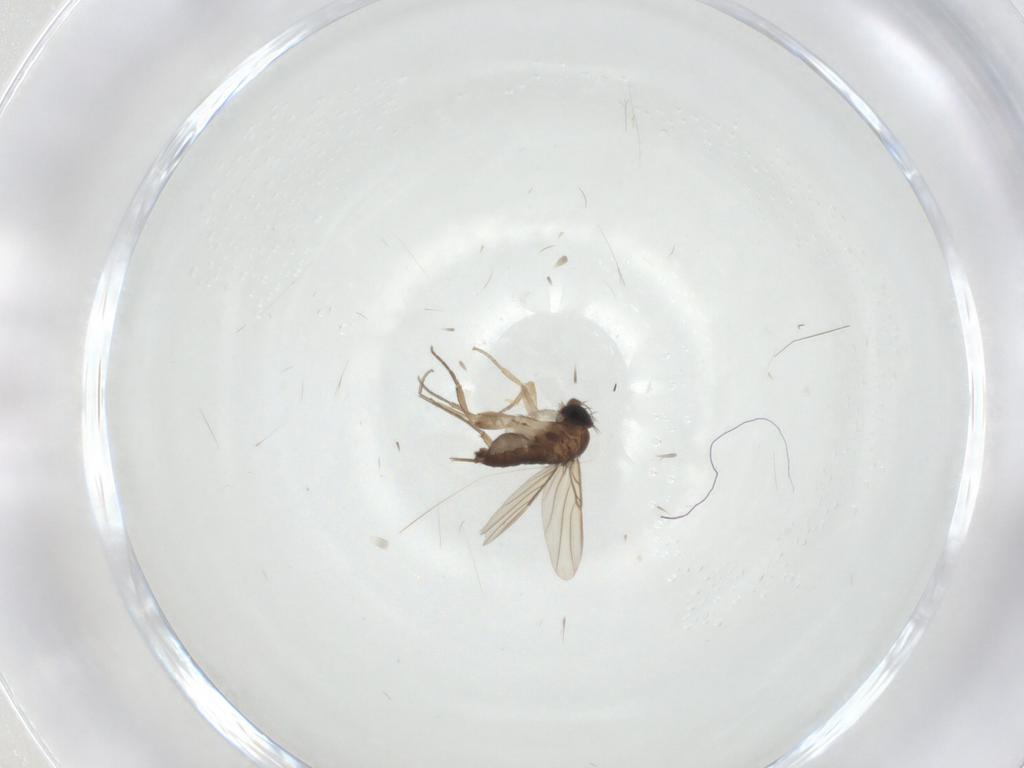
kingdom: Animalia
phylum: Arthropoda
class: Insecta
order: Diptera
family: Phoridae
